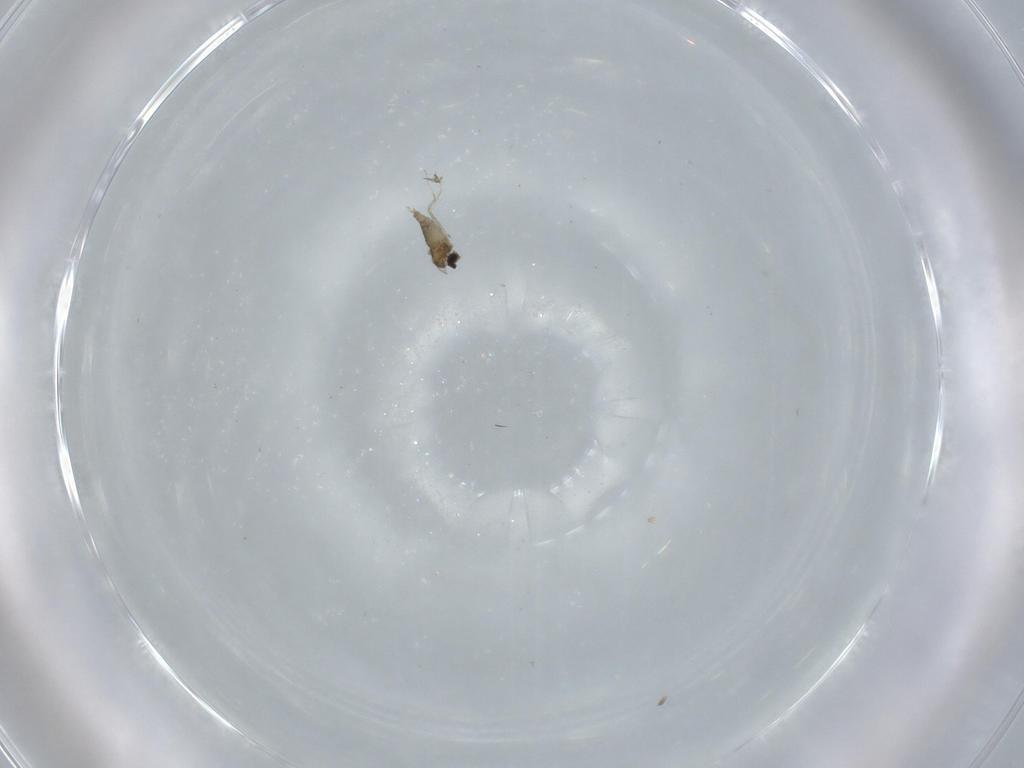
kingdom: Animalia
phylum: Arthropoda
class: Insecta
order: Diptera
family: Cecidomyiidae
